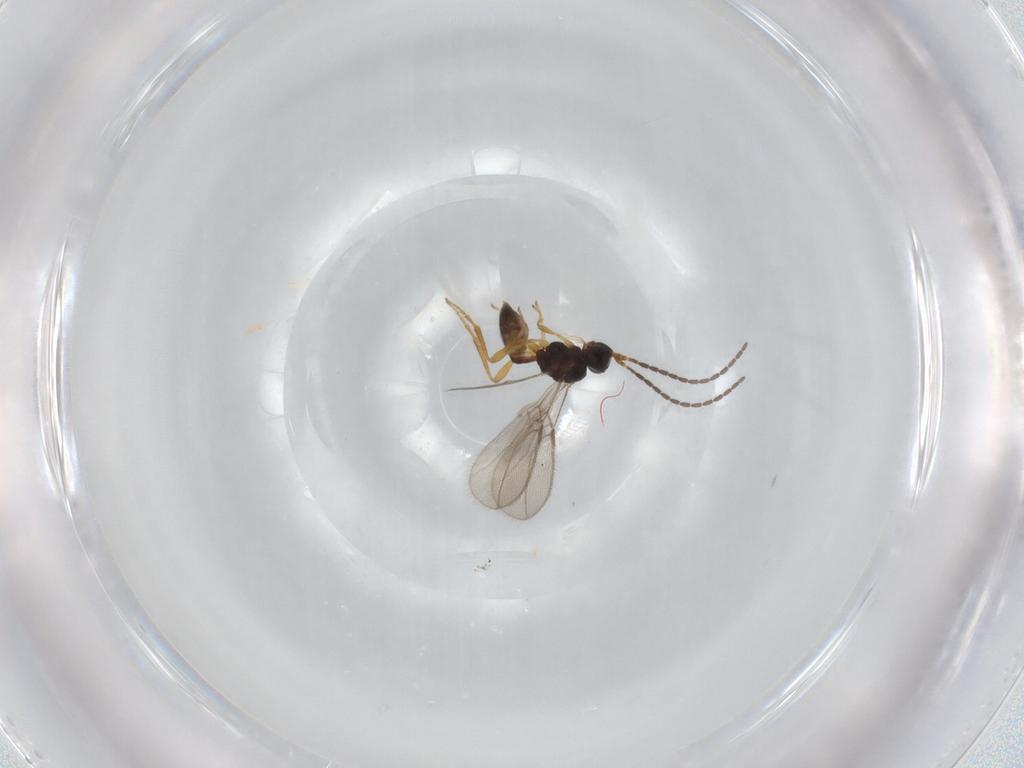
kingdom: Animalia
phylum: Arthropoda
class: Insecta
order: Hymenoptera
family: Braconidae
